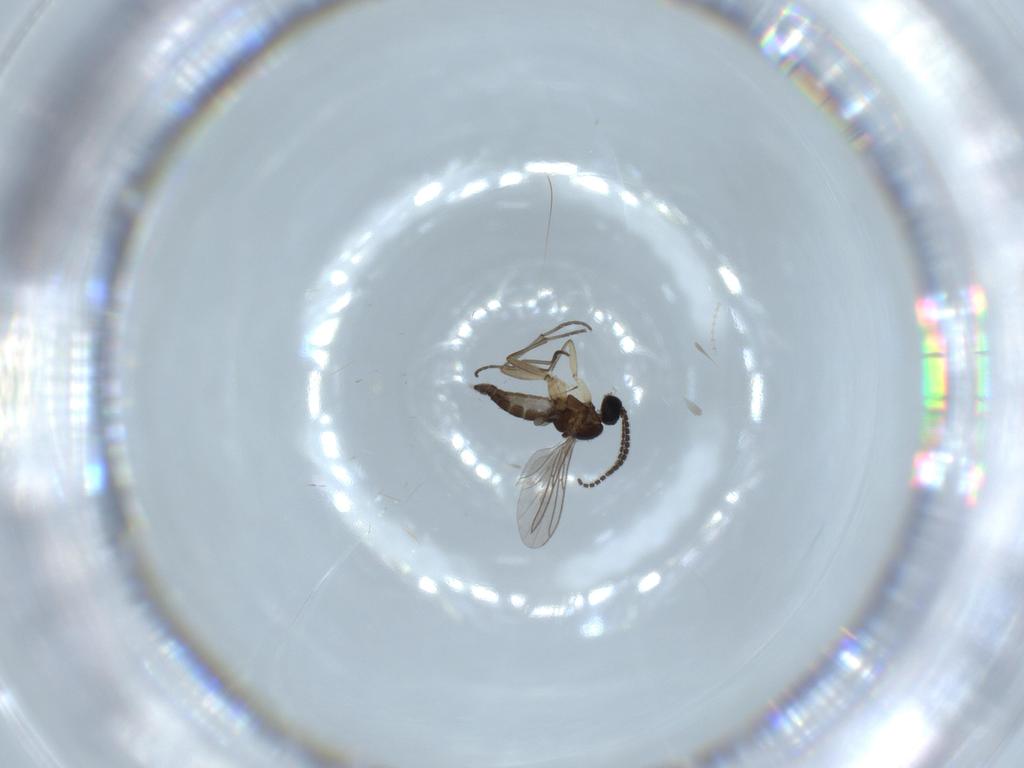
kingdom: Animalia
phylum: Arthropoda
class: Insecta
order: Diptera
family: Sciaridae
